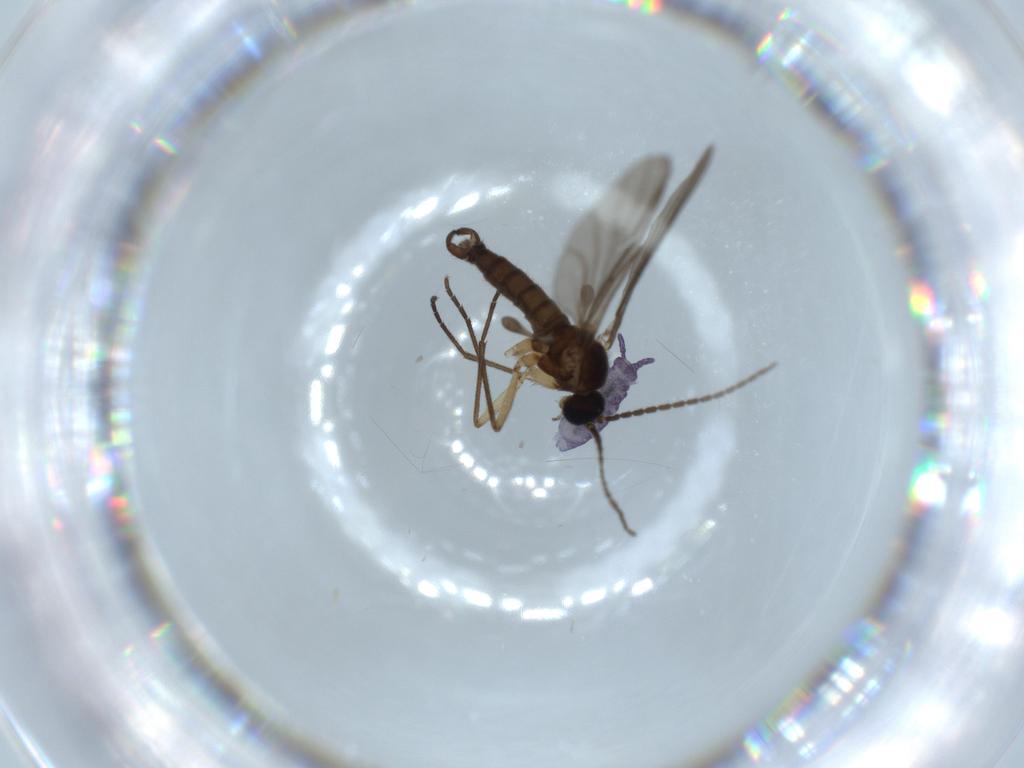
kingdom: Animalia
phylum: Arthropoda
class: Insecta
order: Diptera
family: Sciaridae
